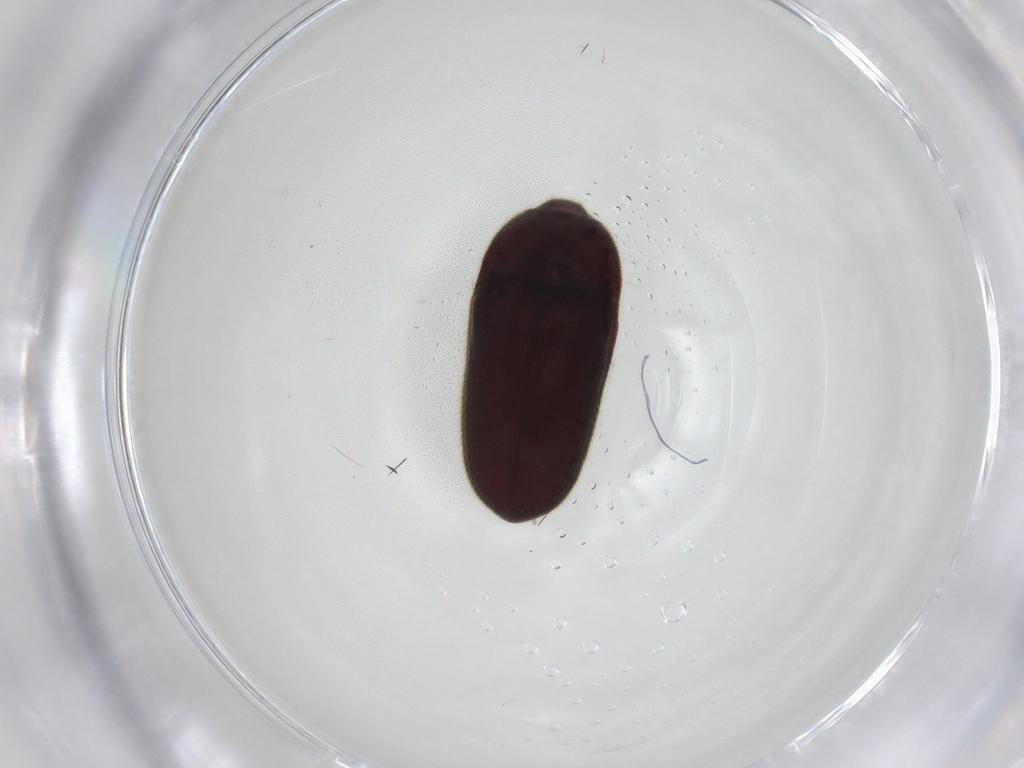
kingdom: Animalia
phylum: Arthropoda
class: Insecta
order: Coleoptera
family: Throscidae
